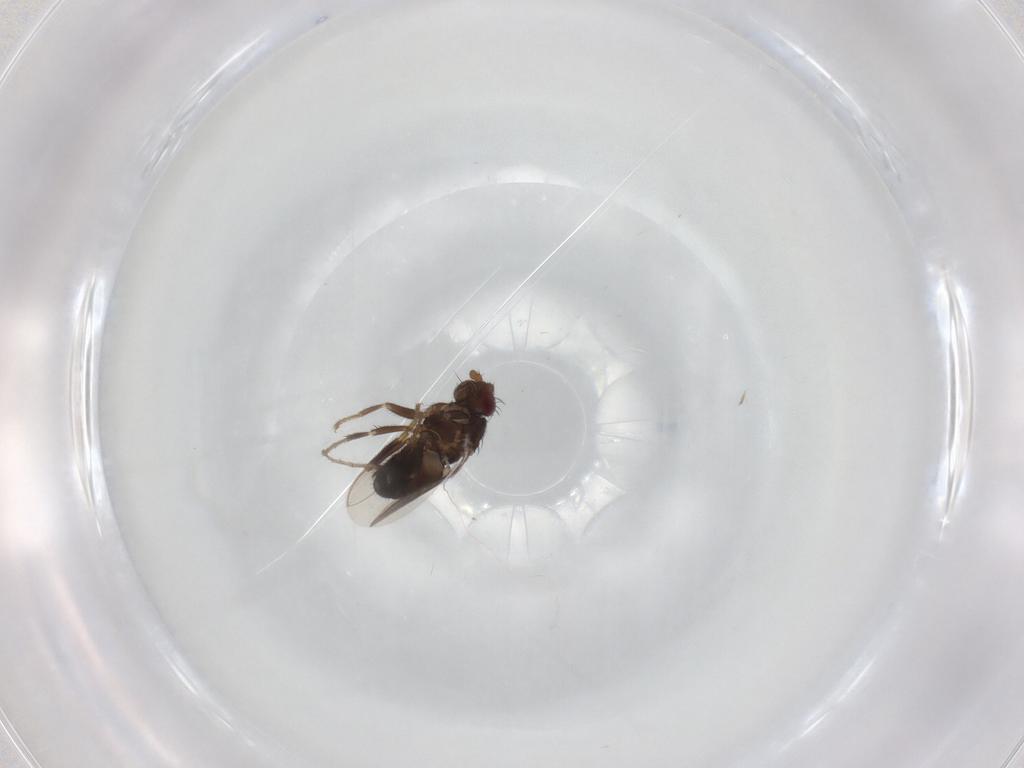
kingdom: Animalia
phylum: Arthropoda
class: Insecta
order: Diptera
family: Sphaeroceridae
